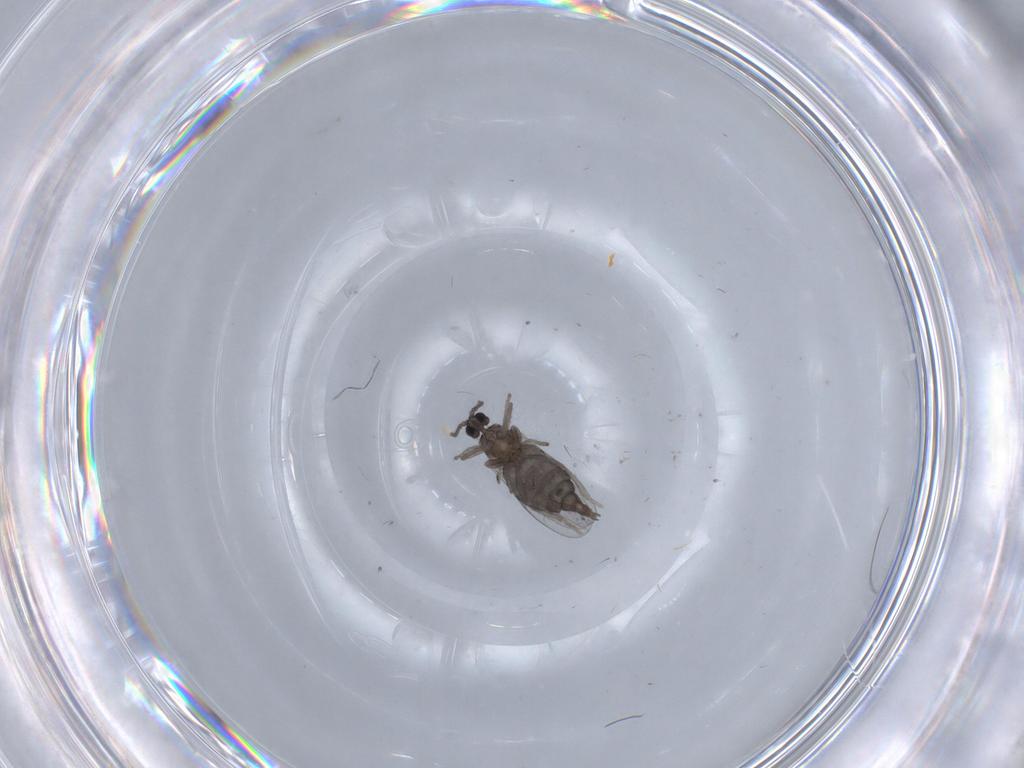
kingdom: Animalia
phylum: Arthropoda
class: Insecta
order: Diptera
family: Cecidomyiidae
